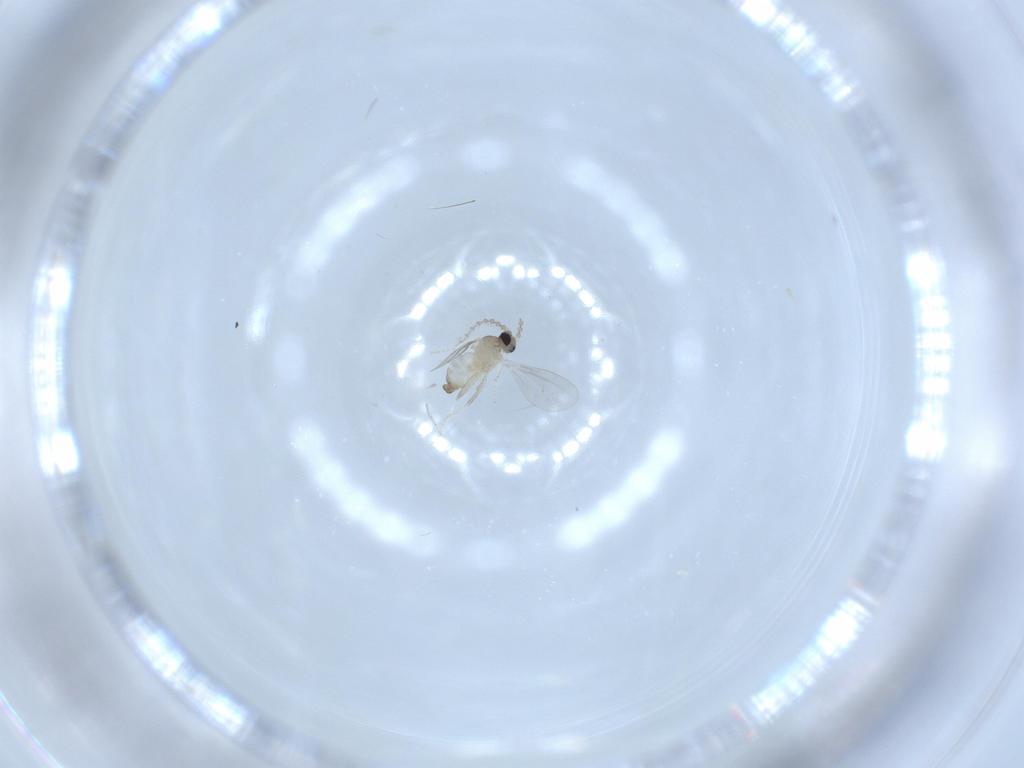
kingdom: Animalia
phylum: Arthropoda
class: Insecta
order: Diptera
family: Cecidomyiidae
